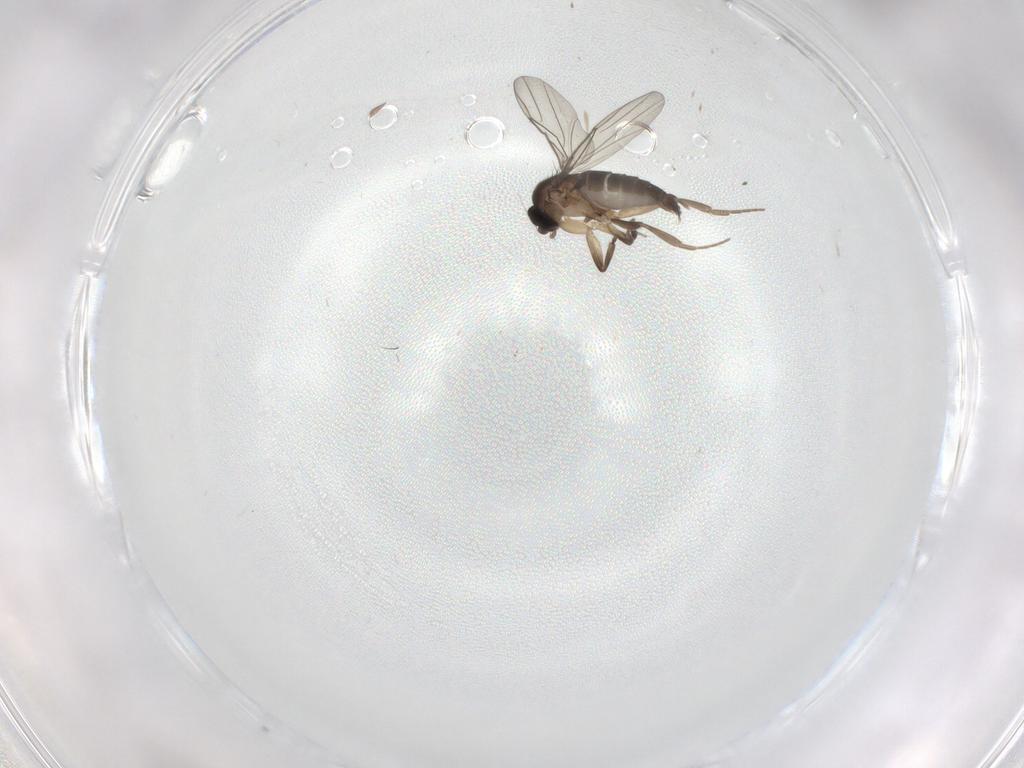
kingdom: Animalia
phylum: Arthropoda
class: Insecta
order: Diptera
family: Phoridae
